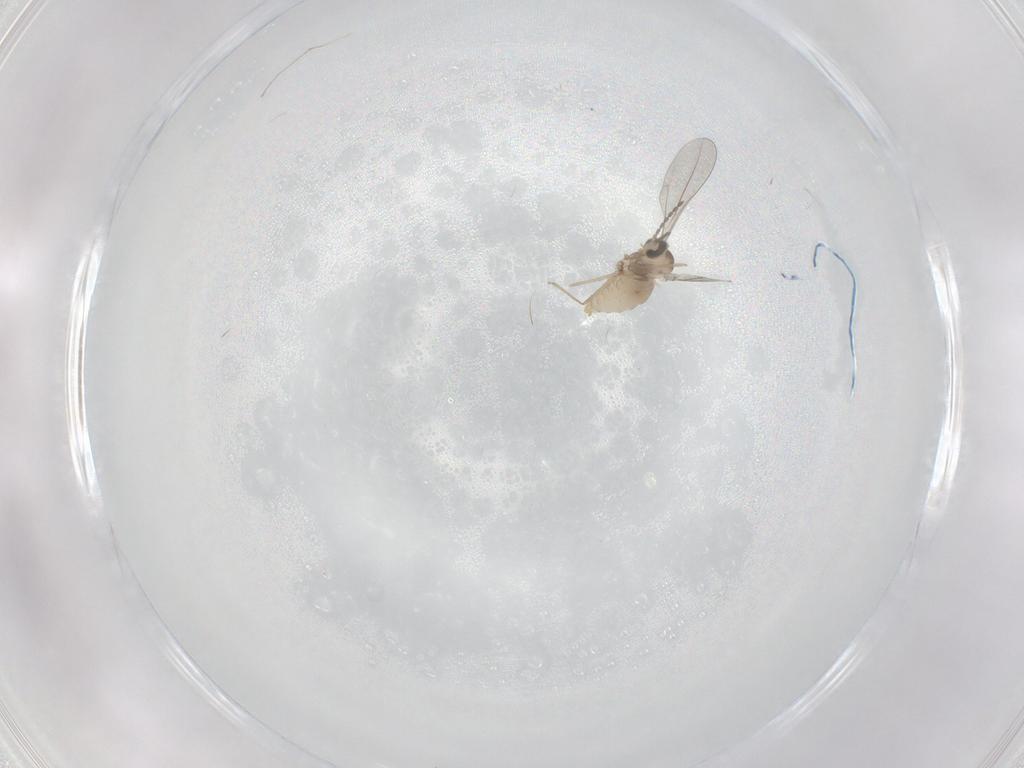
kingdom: Animalia
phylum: Arthropoda
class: Insecta
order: Diptera
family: Cecidomyiidae
